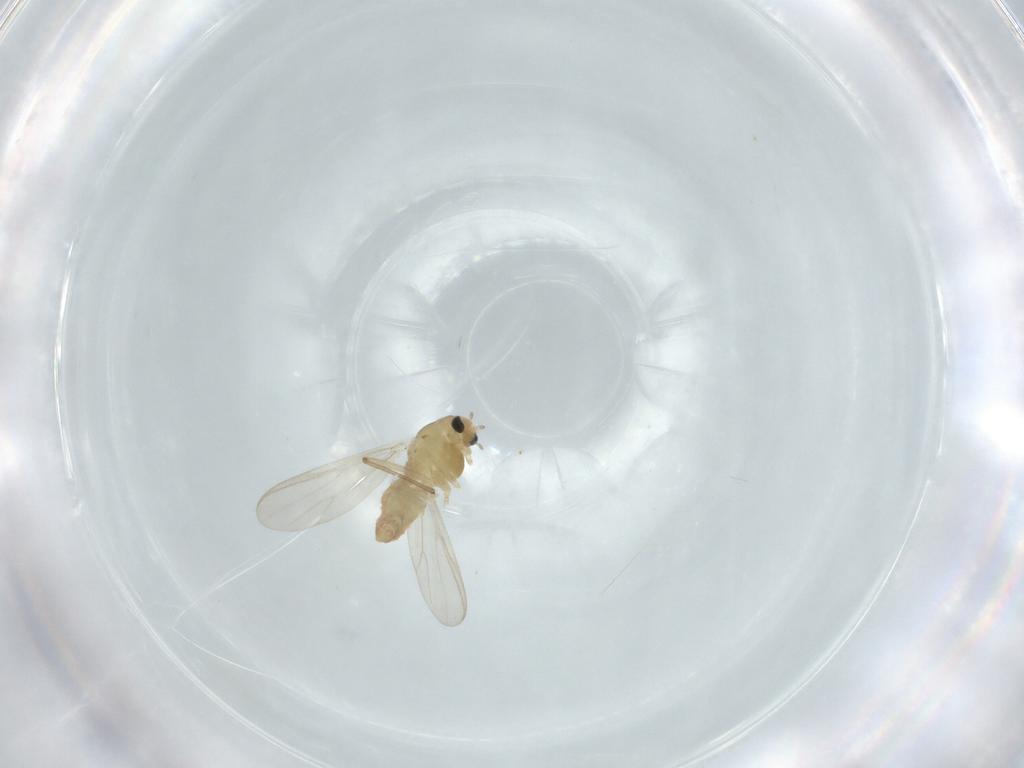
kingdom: Animalia
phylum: Arthropoda
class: Insecta
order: Diptera
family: Chironomidae
